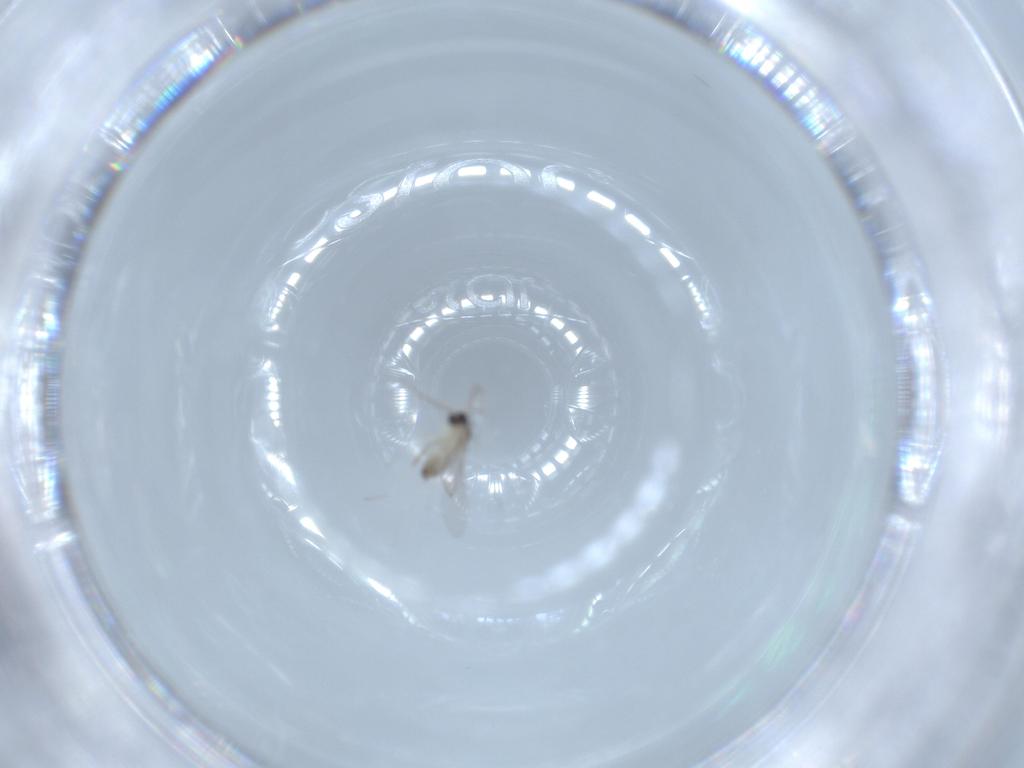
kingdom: Animalia
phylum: Arthropoda
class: Insecta
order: Diptera
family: Cecidomyiidae
